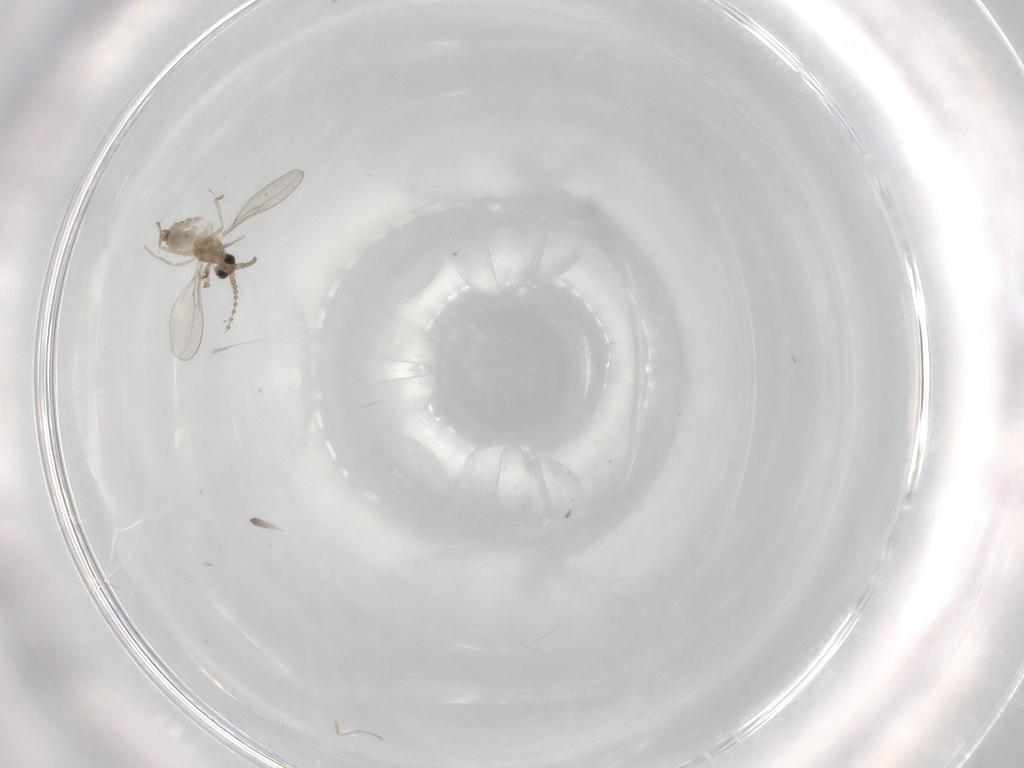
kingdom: Animalia
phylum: Arthropoda
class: Insecta
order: Diptera
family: Cecidomyiidae
